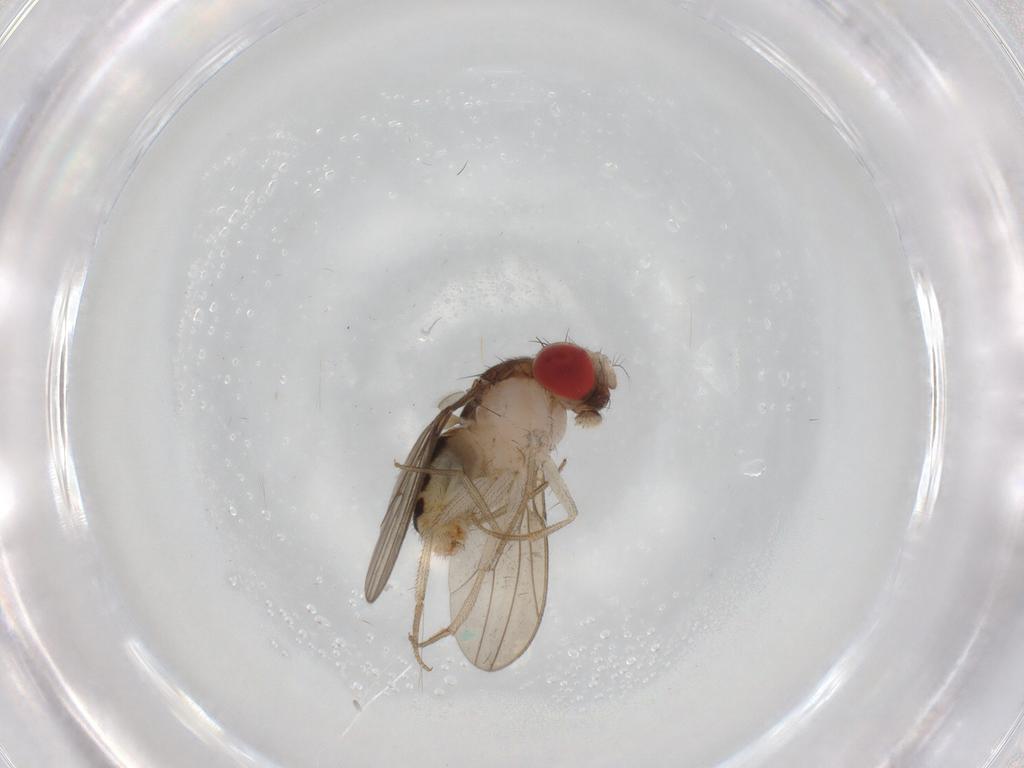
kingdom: Animalia
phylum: Arthropoda
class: Insecta
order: Diptera
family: Drosophilidae
